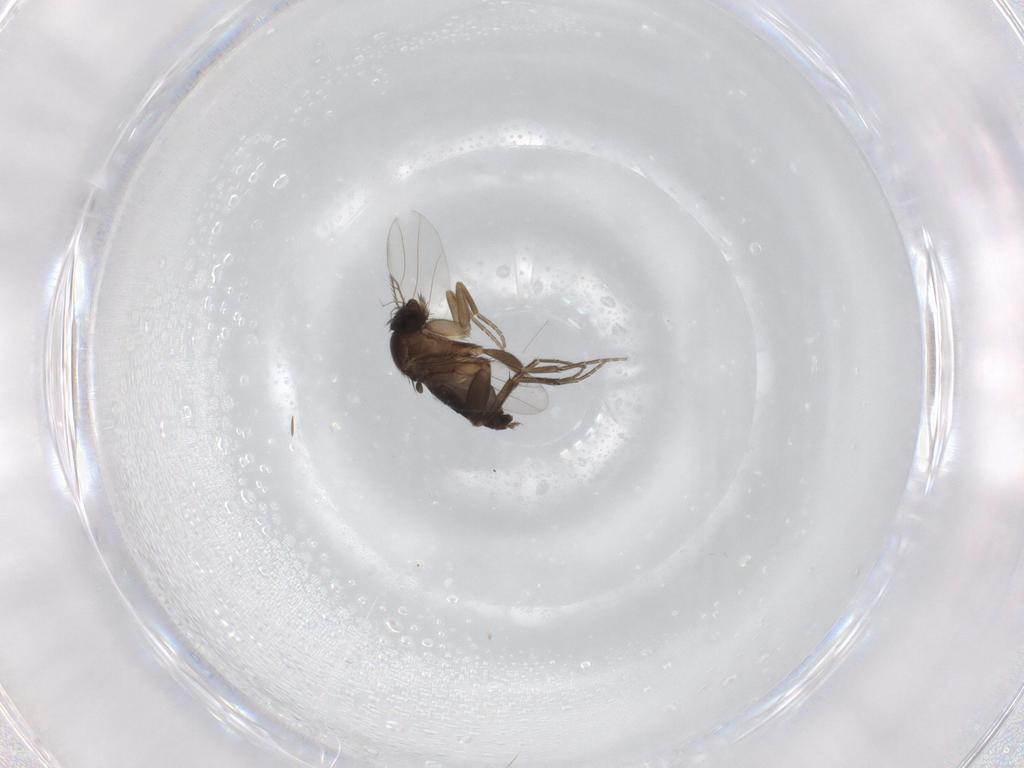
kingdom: Animalia
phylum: Arthropoda
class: Insecta
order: Diptera
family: Phoridae
